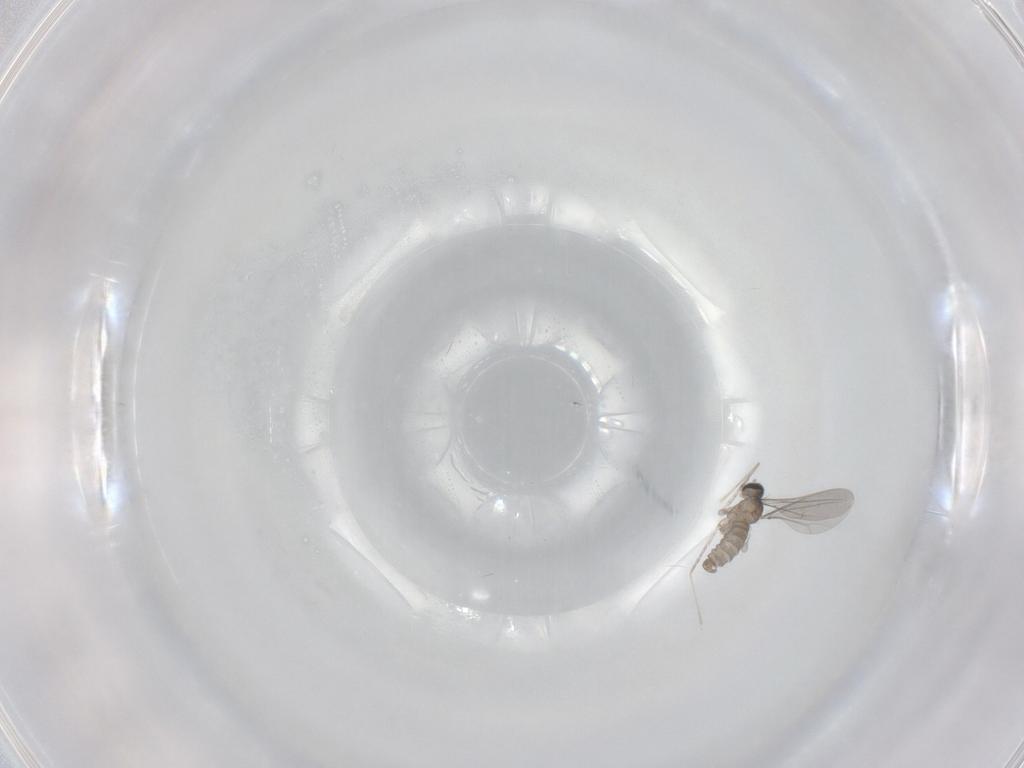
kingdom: Animalia
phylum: Arthropoda
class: Insecta
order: Diptera
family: Cecidomyiidae
